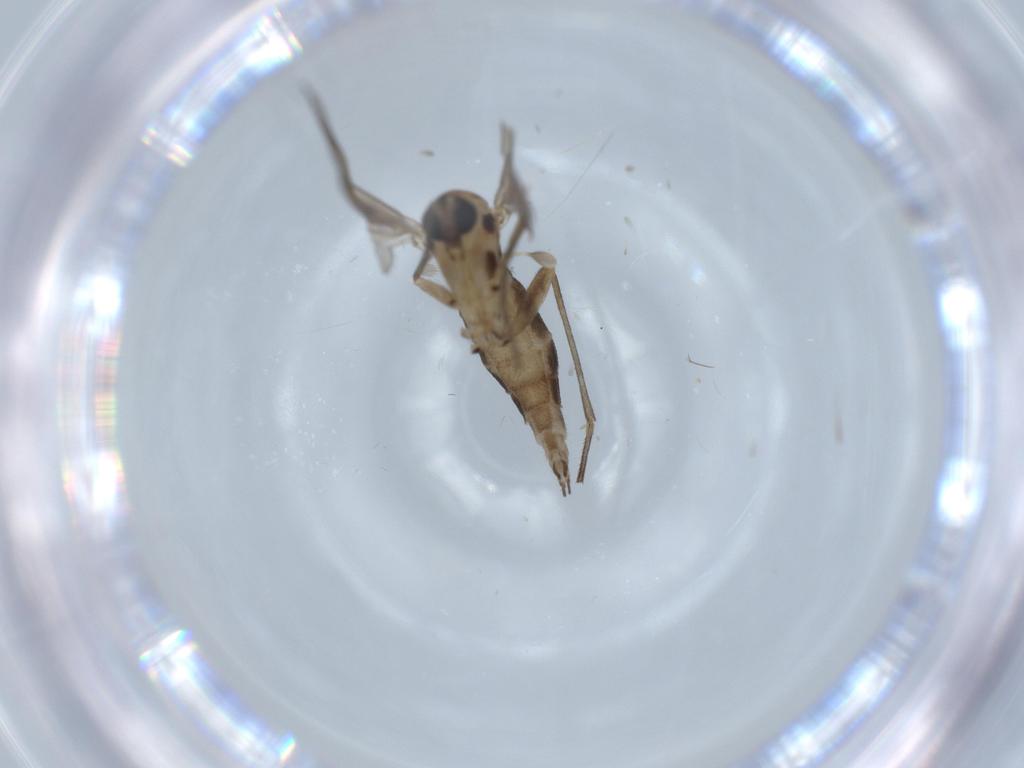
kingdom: Animalia
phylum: Arthropoda
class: Insecta
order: Diptera
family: Sciaridae
